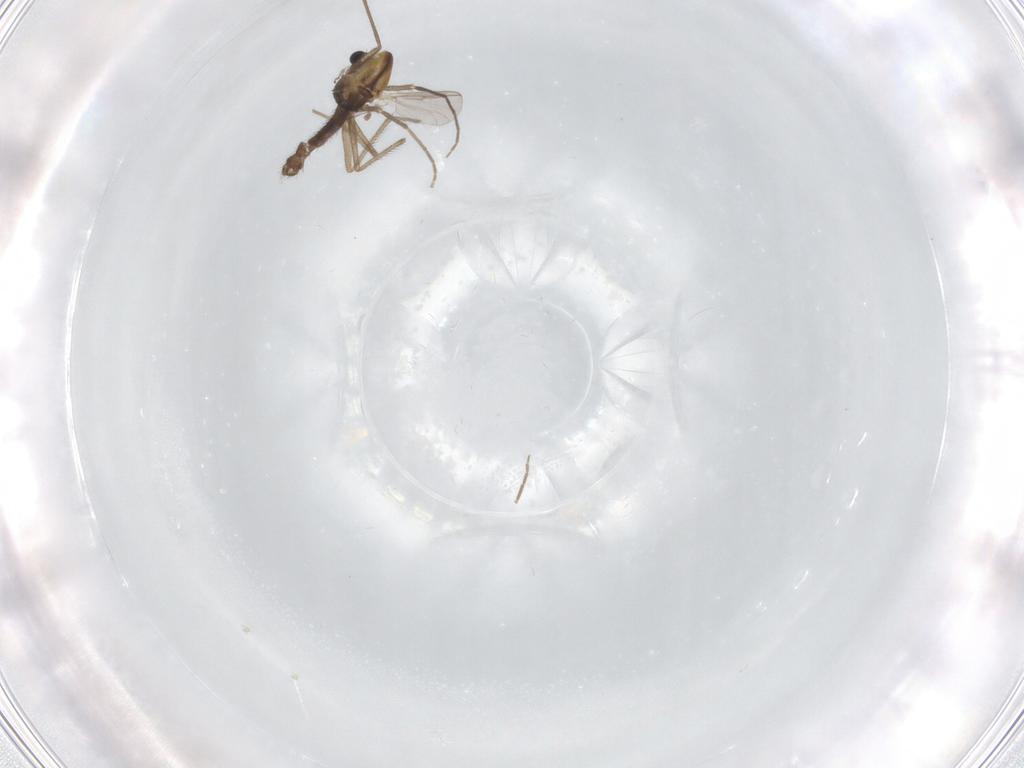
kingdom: Animalia
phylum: Arthropoda
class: Insecta
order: Diptera
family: Chironomidae
